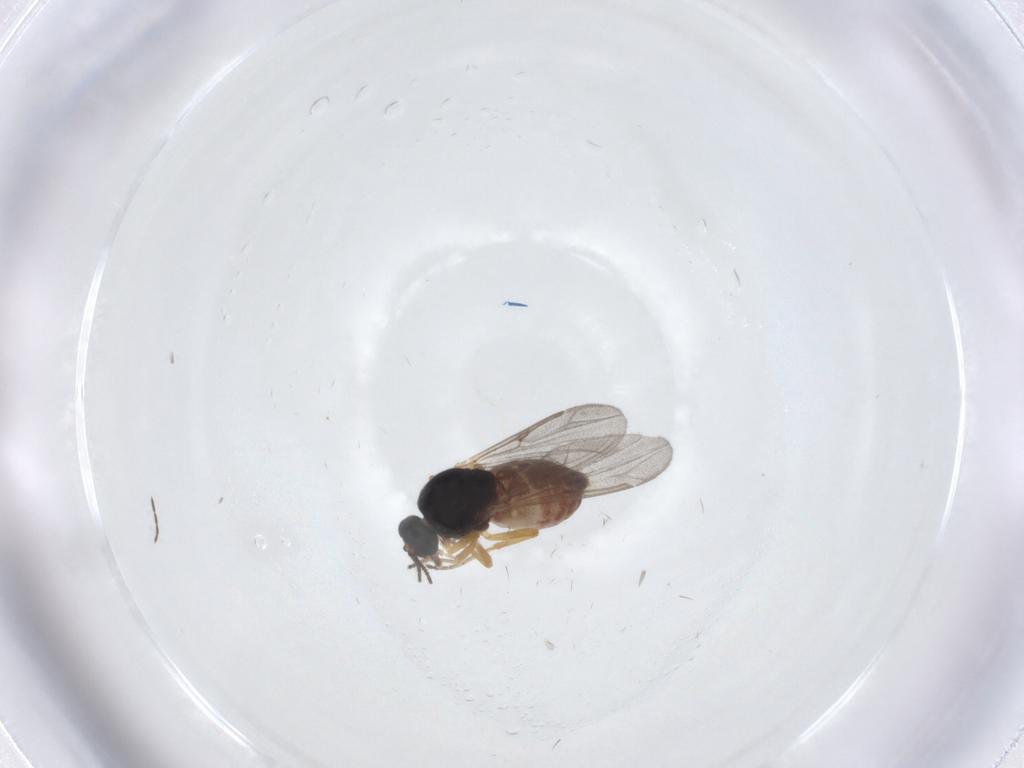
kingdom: Animalia
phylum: Arthropoda
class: Insecta
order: Diptera
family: Ceratopogonidae
